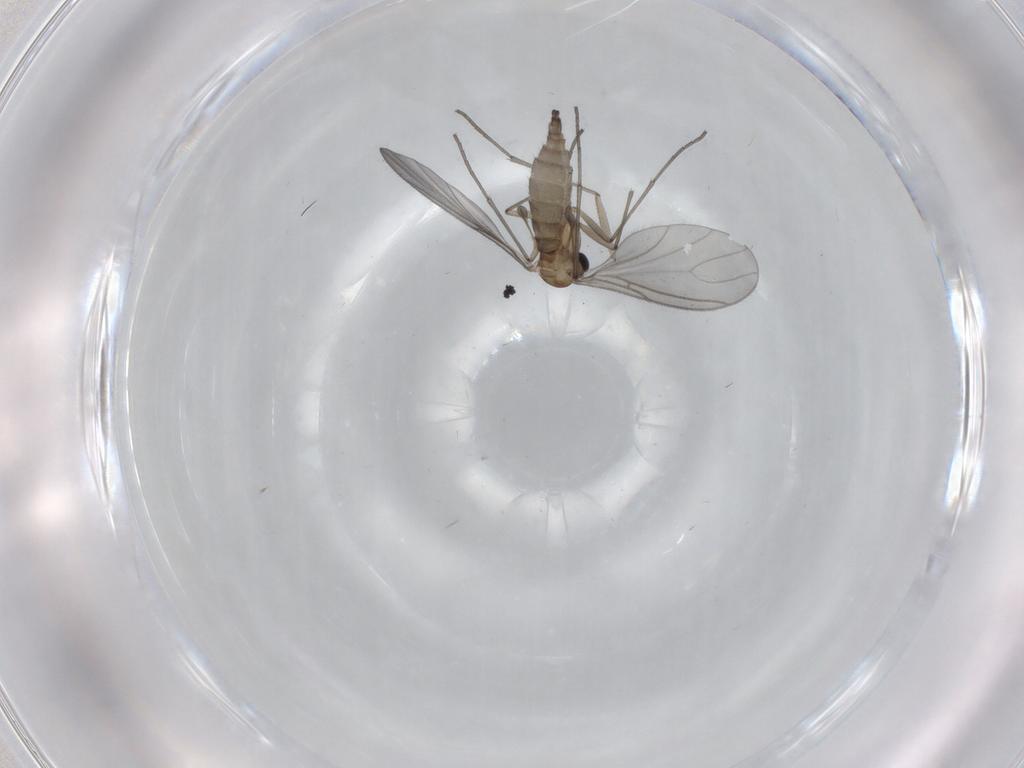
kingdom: Animalia
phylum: Arthropoda
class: Insecta
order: Diptera
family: Sciaridae
